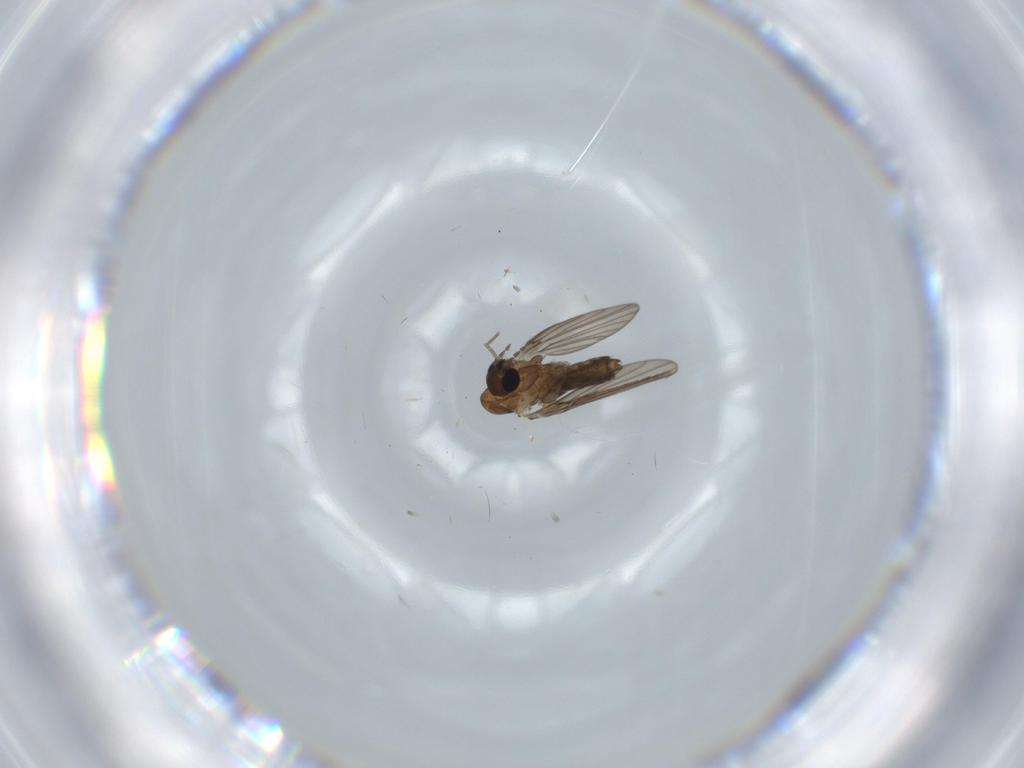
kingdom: Animalia
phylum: Arthropoda
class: Insecta
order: Diptera
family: Psychodidae
